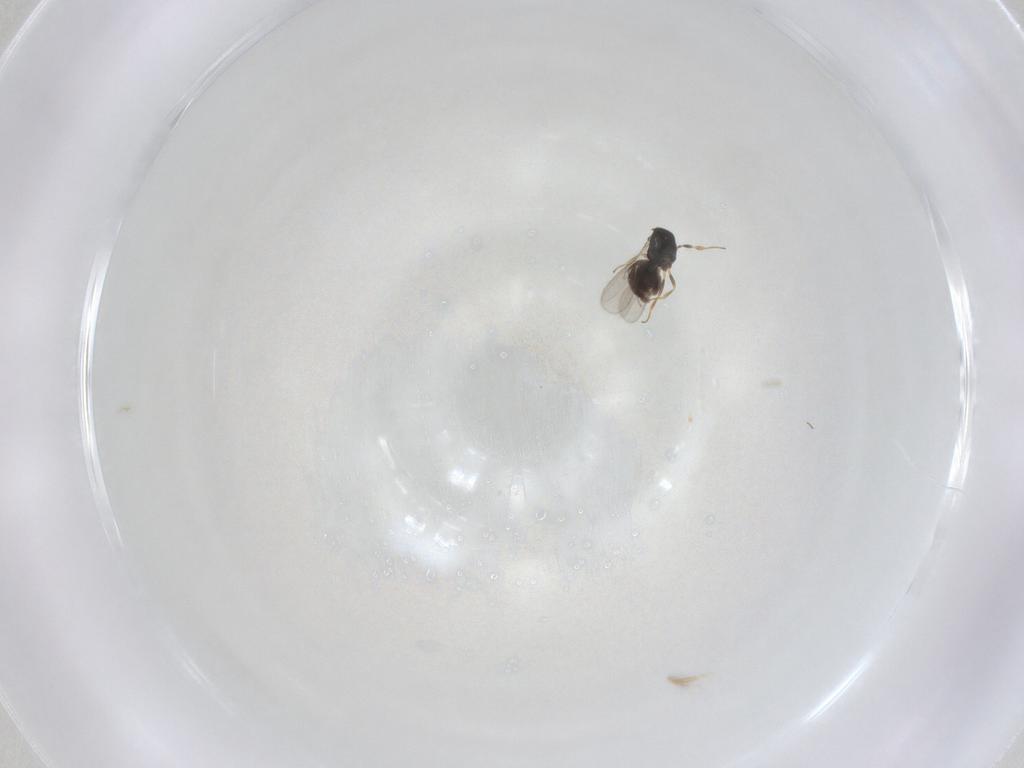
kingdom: Animalia
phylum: Arthropoda
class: Insecta
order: Hymenoptera
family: Scelionidae
